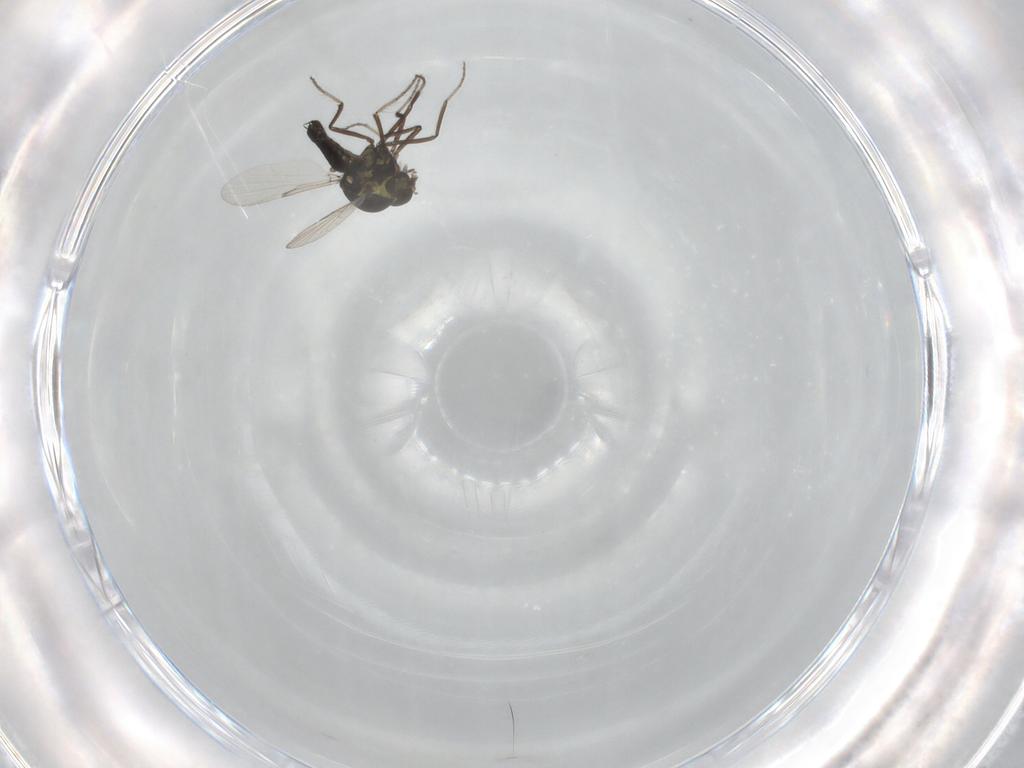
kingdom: Animalia
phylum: Arthropoda
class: Insecta
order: Diptera
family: Ceratopogonidae
